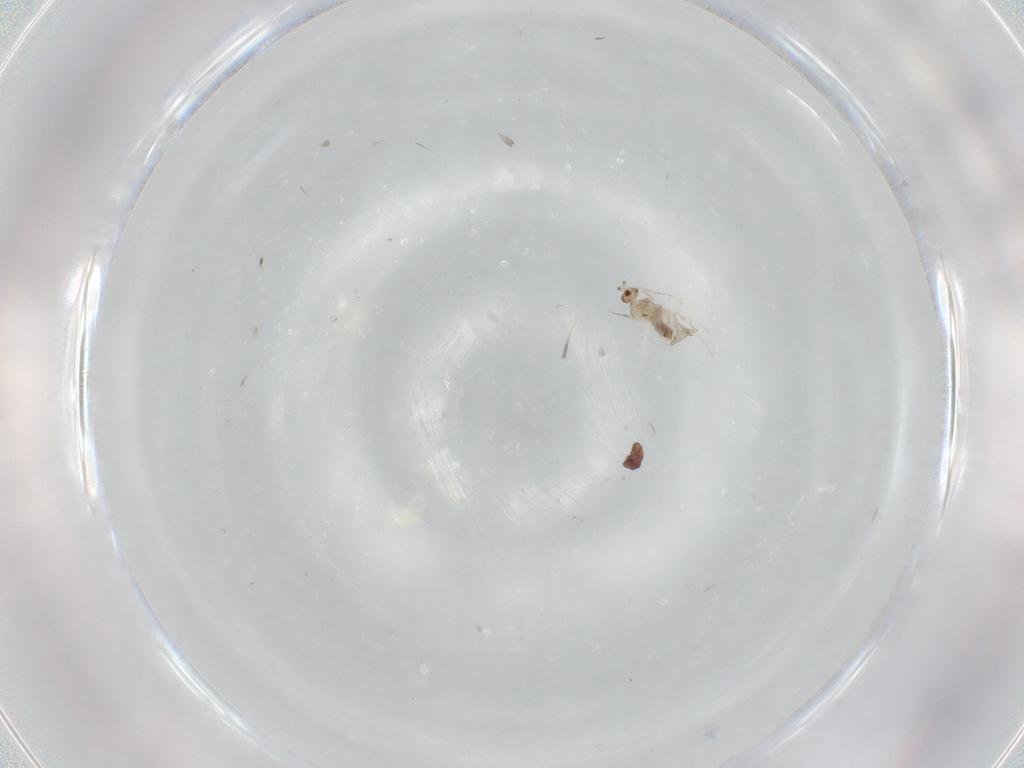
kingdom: Animalia
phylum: Arthropoda
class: Insecta
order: Diptera
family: Cecidomyiidae
